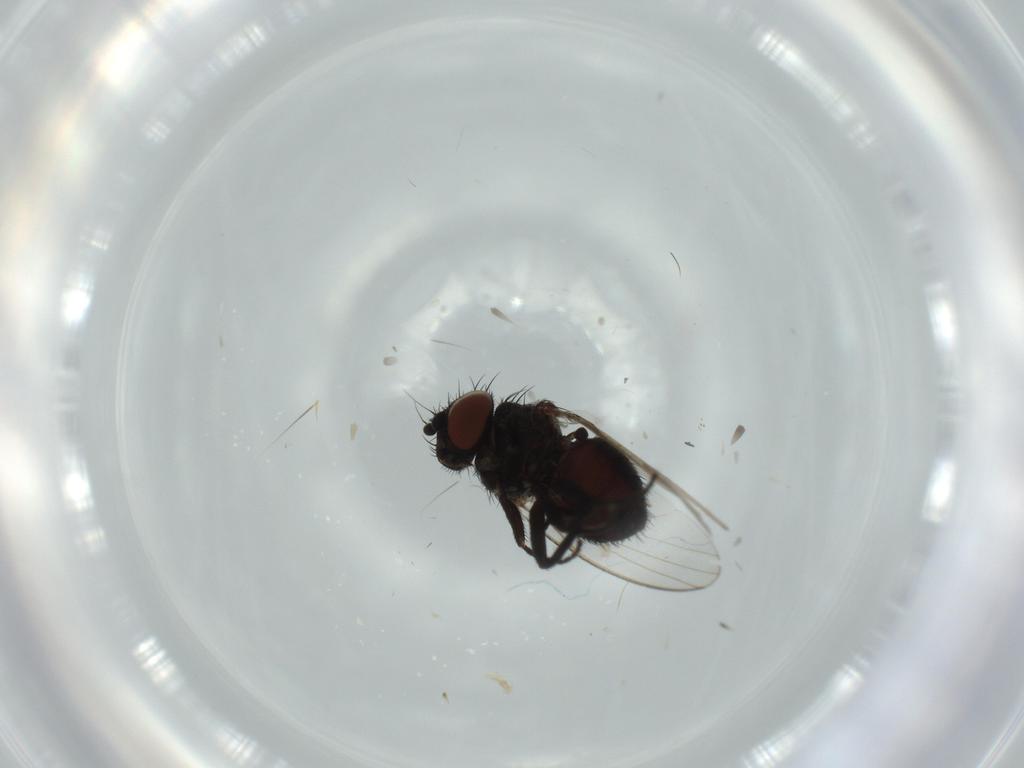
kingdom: Animalia
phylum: Arthropoda
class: Insecta
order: Diptera
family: Milichiidae
